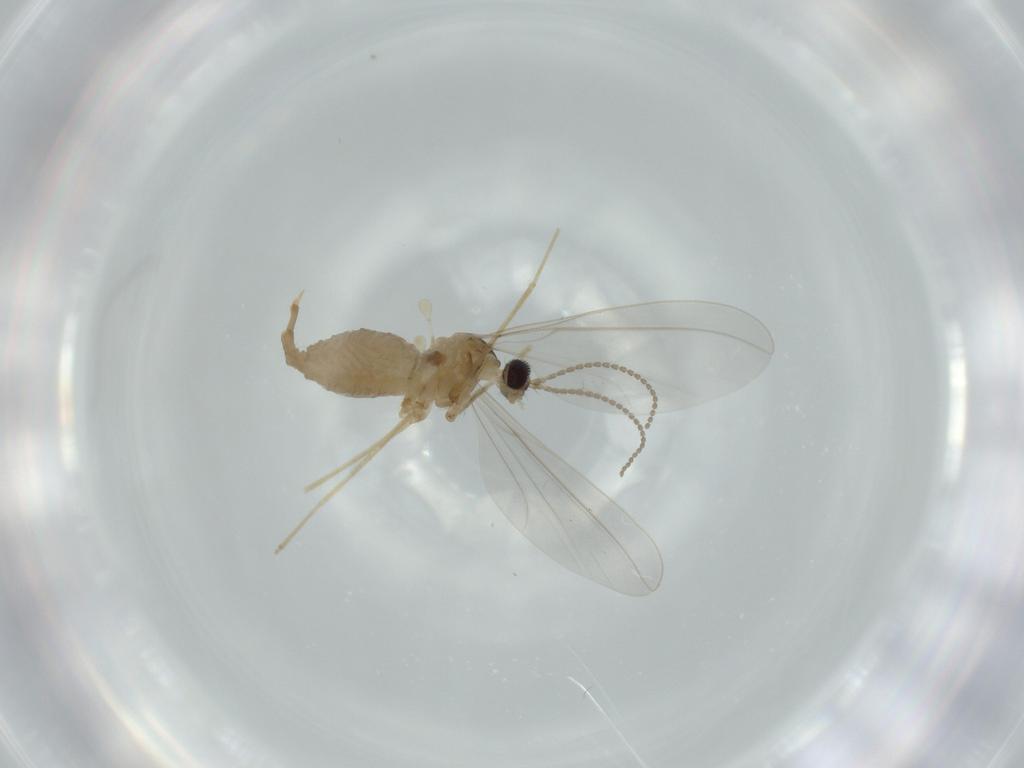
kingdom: Animalia
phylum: Arthropoda
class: Insecta
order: Diptera
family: Cecidomyiidae
